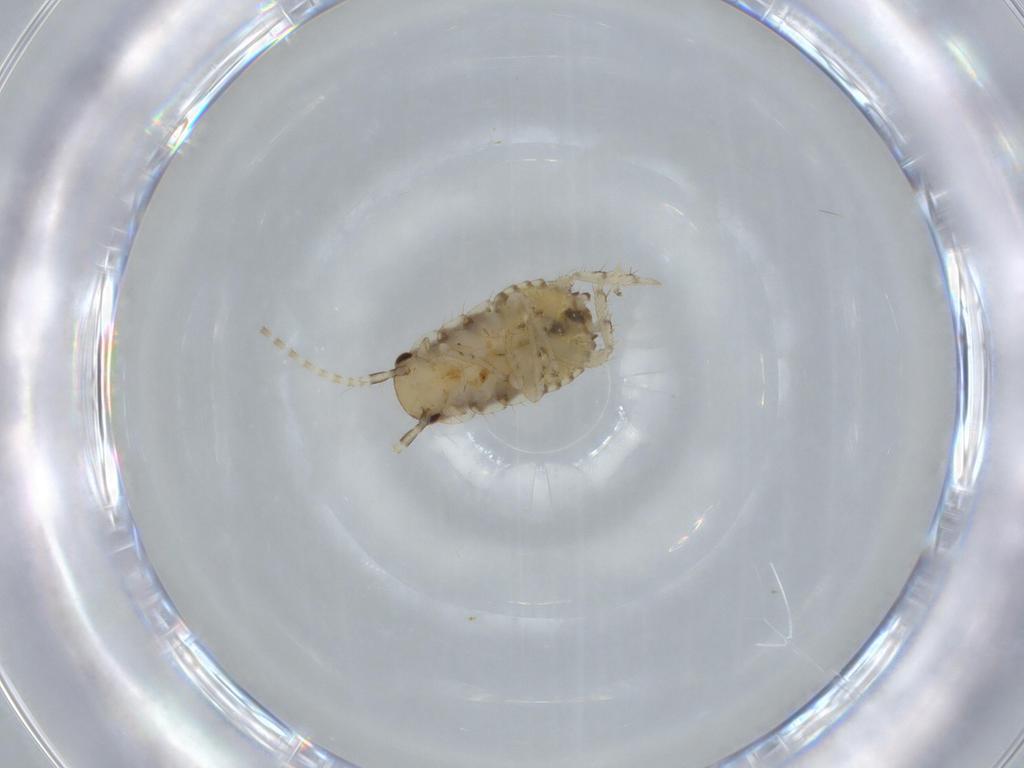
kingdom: Animalia
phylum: Arthropoda
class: Insecta
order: Blattodea
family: Ectobiidae
